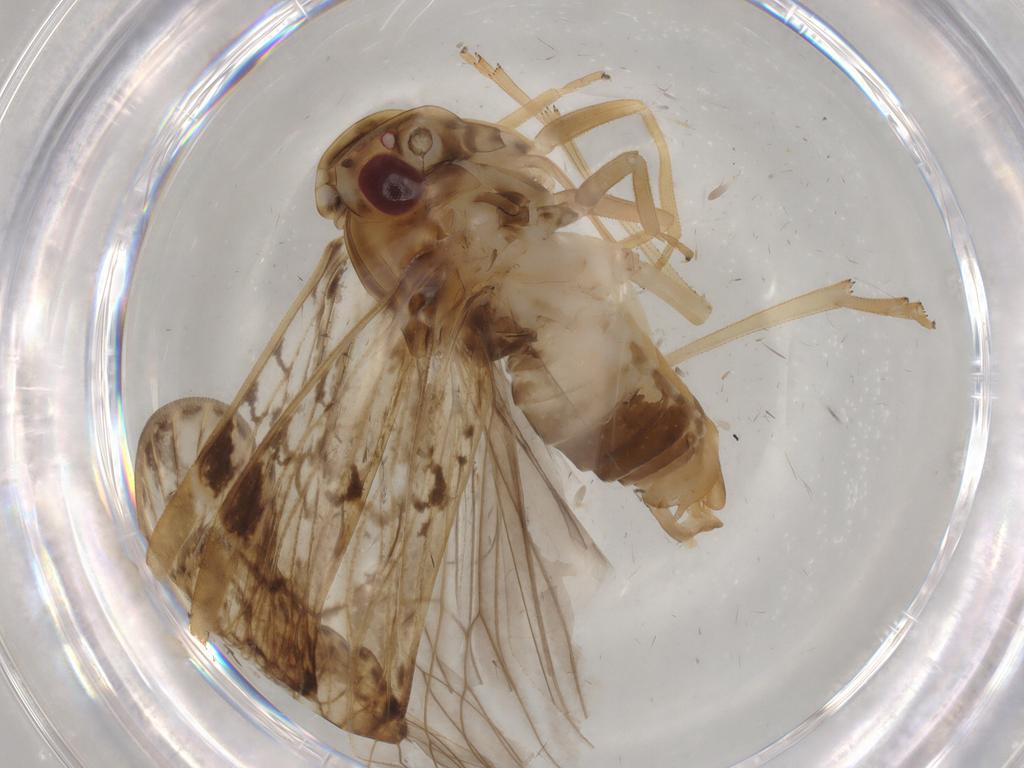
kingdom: Animalia
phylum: Arthropoda
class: Insecta
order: Hemiptera
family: Cixiidae
